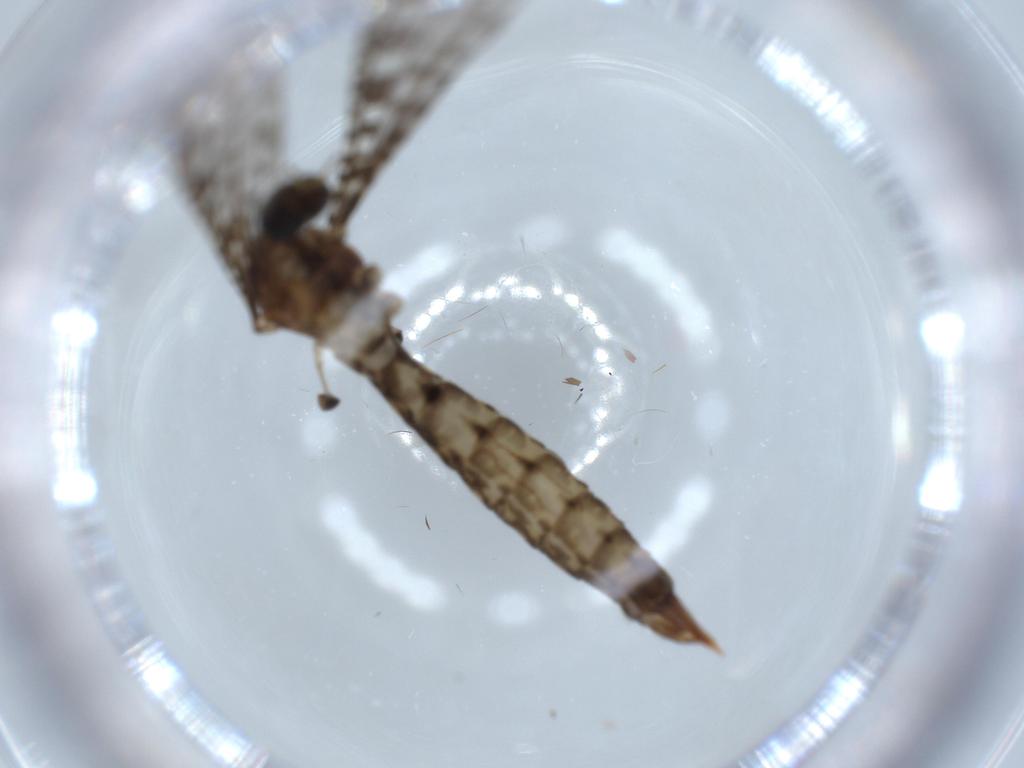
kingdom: Animalia
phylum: Arthropoda
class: Insecta
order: Diptera
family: Limoniidae
